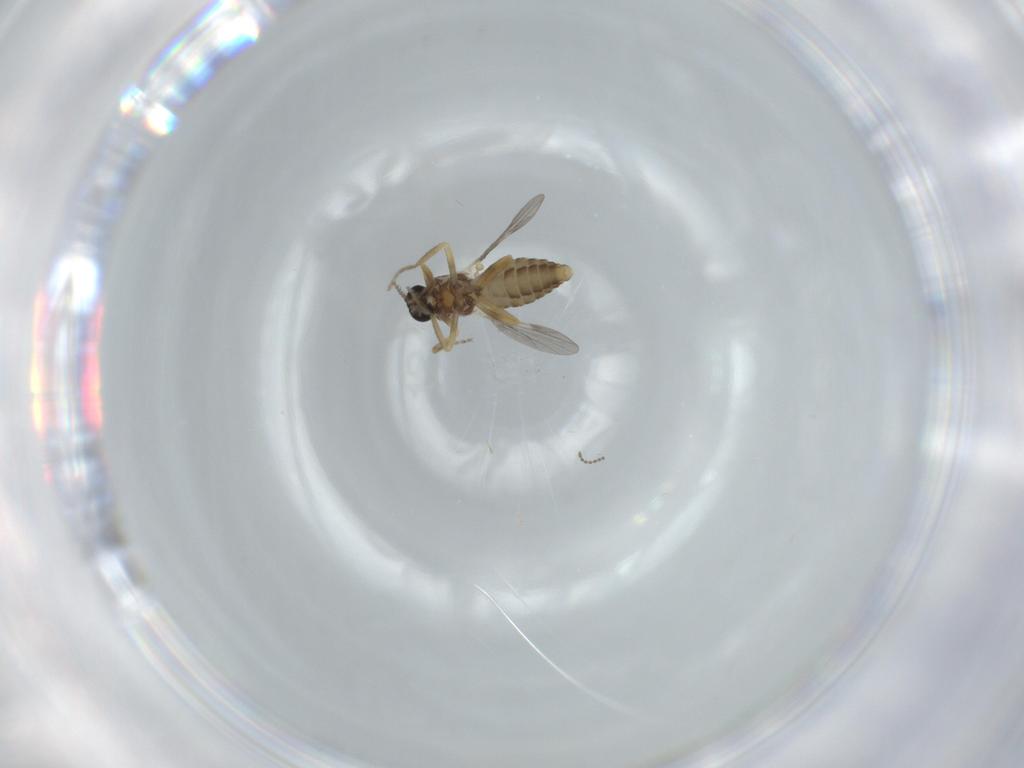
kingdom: Animalia
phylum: Arthropoda
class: Insecta
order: Diptera
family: Ceratopogonidae
